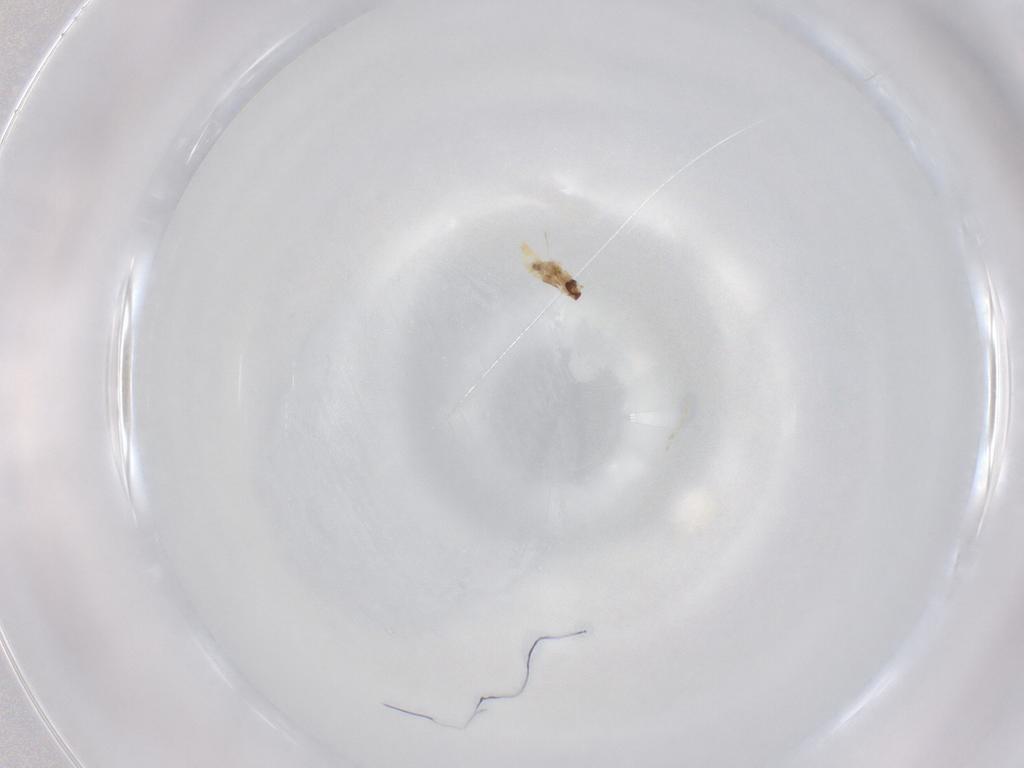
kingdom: Animalia
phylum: Arthropoda
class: Insecta
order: Diptera
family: Cecidomyiidae
